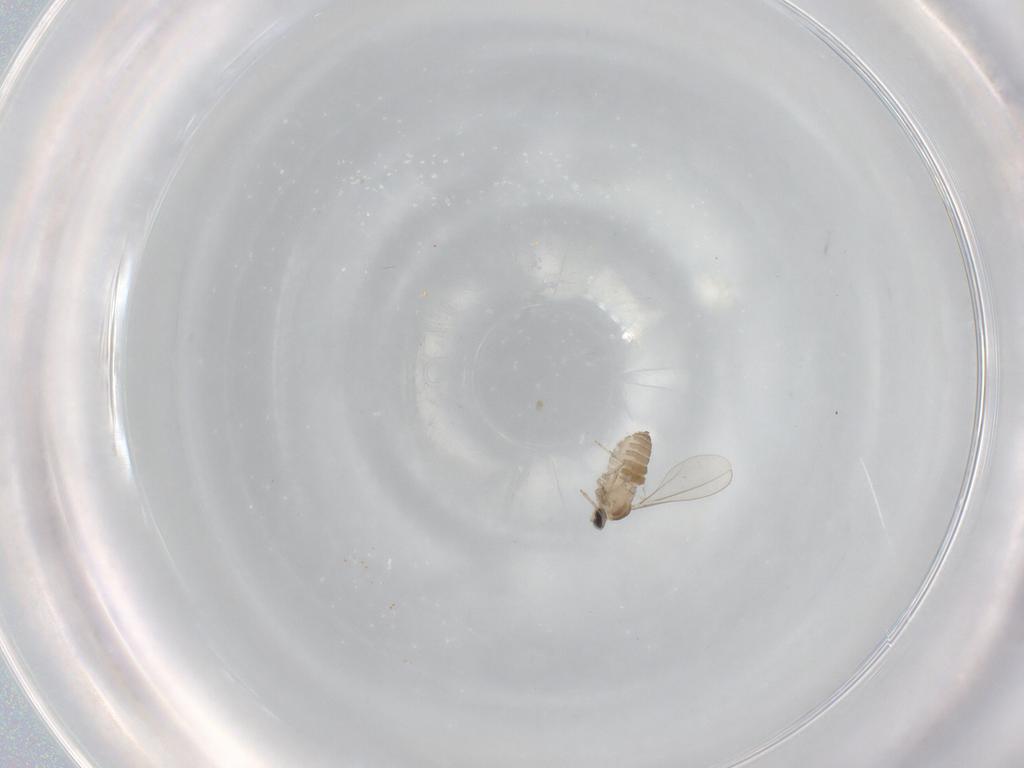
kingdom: Animalia
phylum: Arthropoda
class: Insecta
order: Diptera
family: Cecidomyiidae
